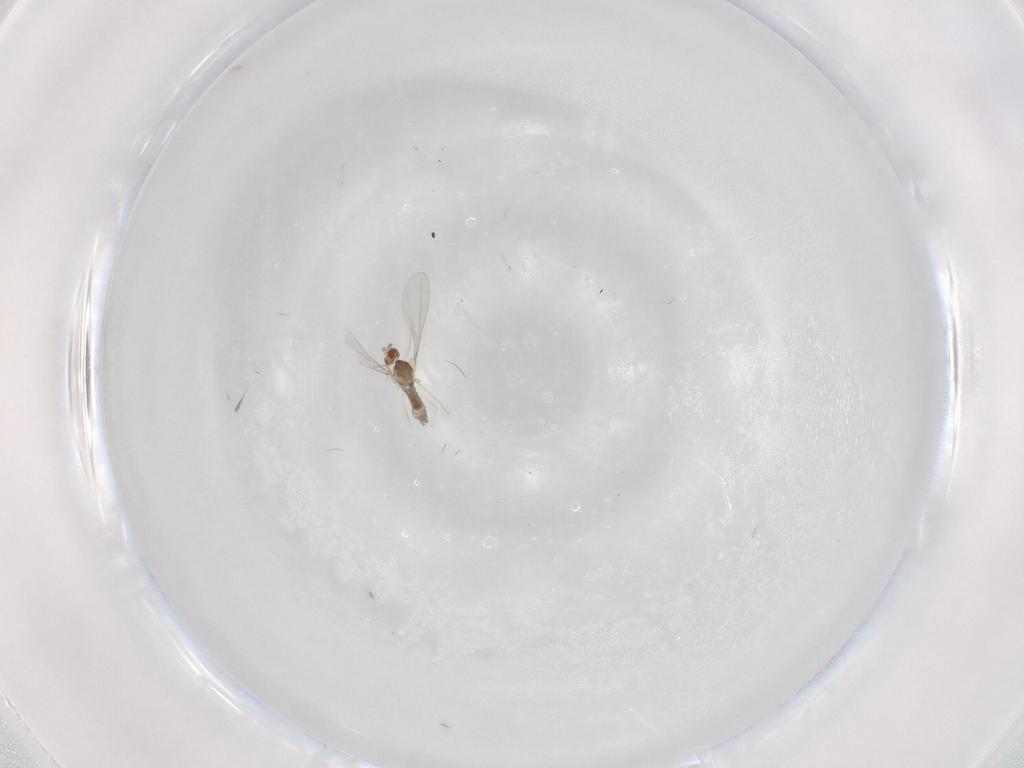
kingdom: Animalia
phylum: Arthropoda
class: Insecta
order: Diptera
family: Cecidomyiidae
